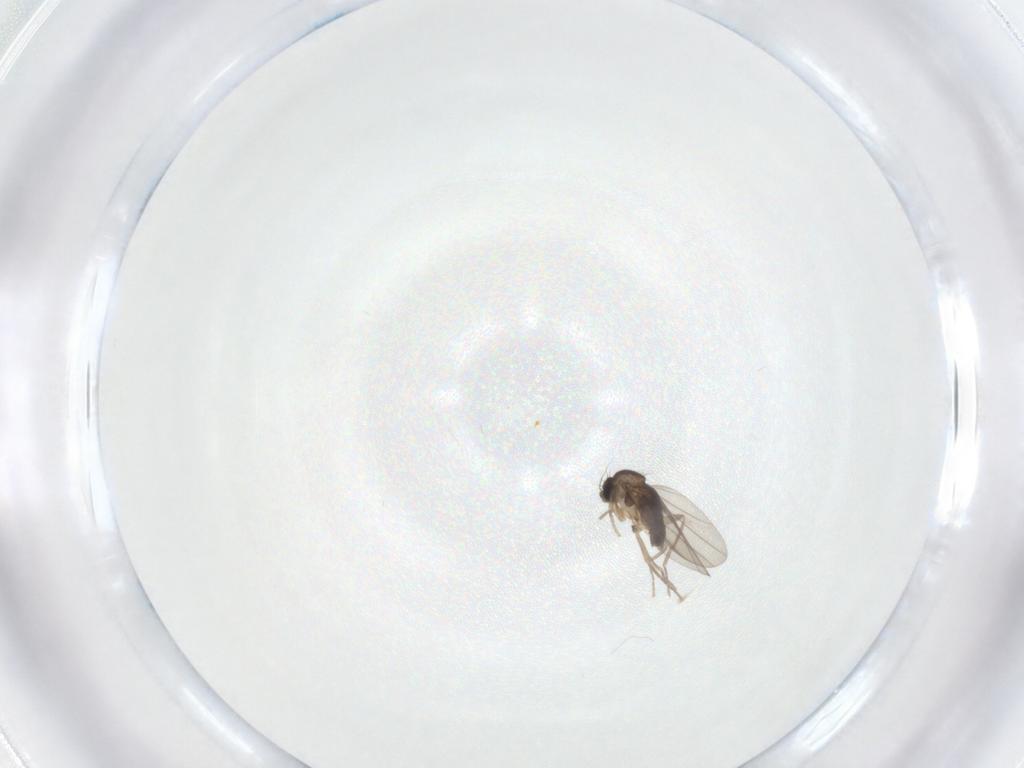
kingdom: Animalia
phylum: Arthropoda
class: Insecta
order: Diptera
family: Phoridae
